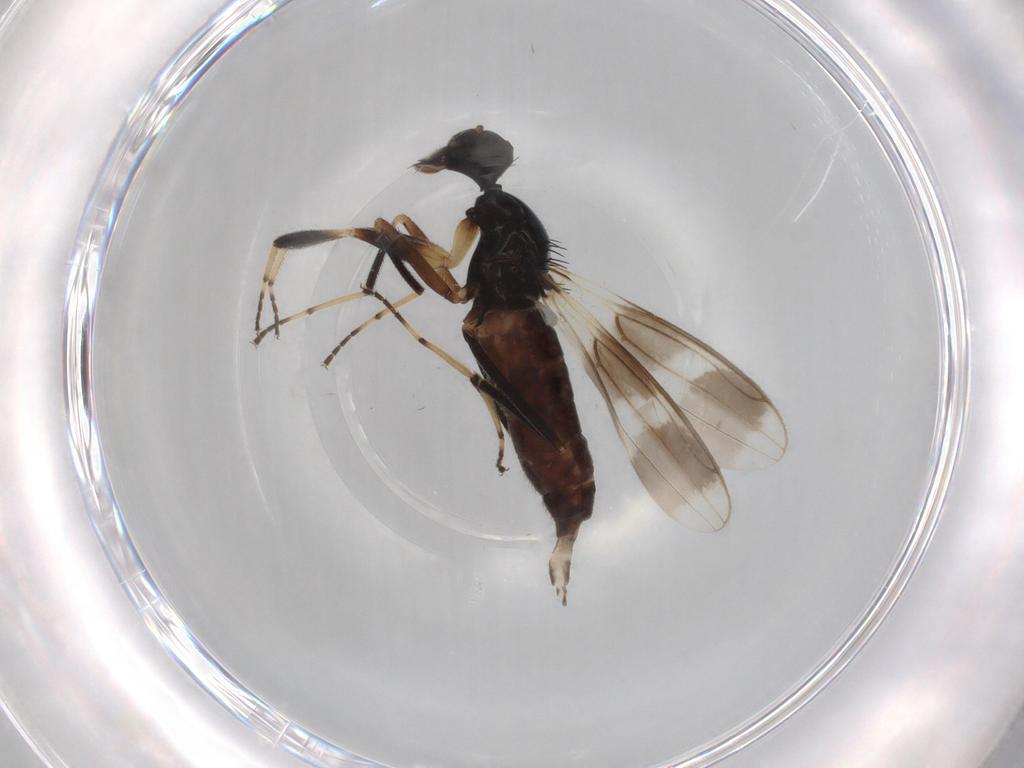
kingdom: Animalia
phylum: Arthropoda
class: Insecta
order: Diptera
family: Hybotidae
